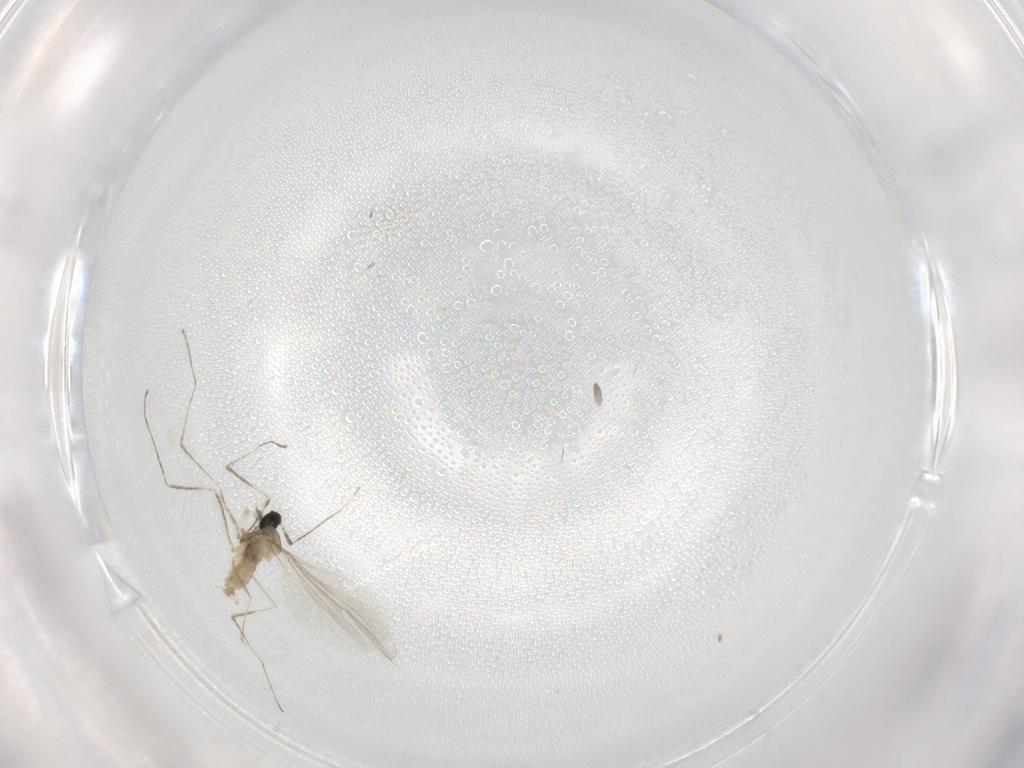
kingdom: Animalia
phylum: Arthropoda
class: Insecta
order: Diptera
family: Cecidomyiidae
